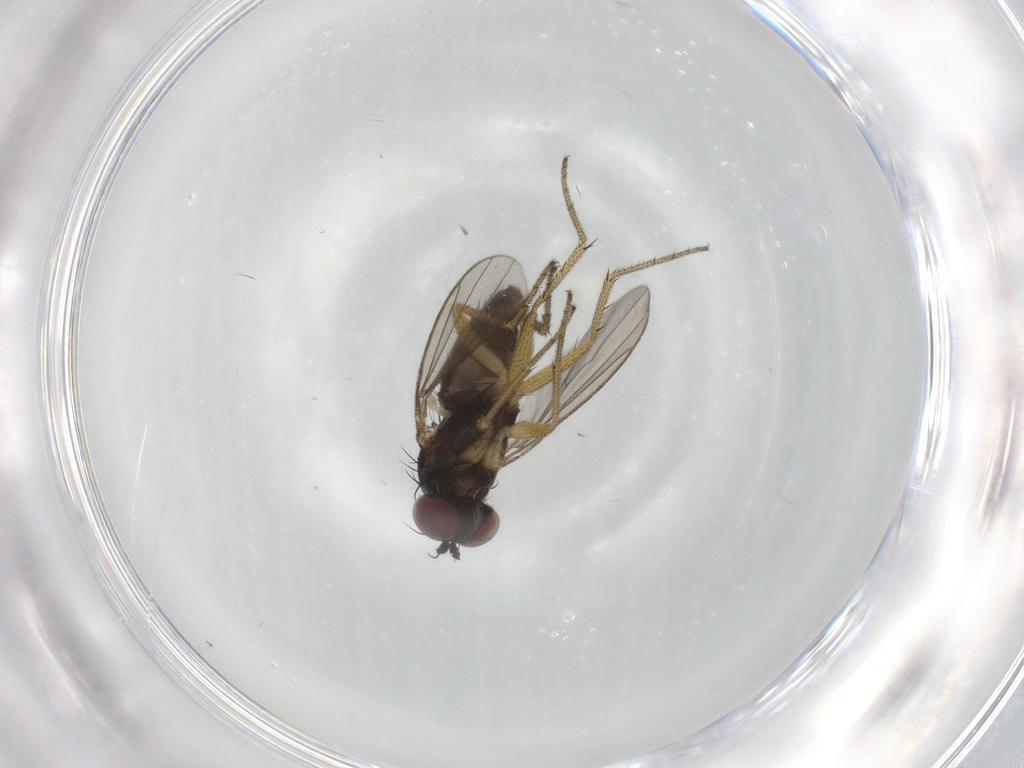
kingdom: Animalia
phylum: Arthropoda
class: Insecta
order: Diptera
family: Dolichopodidae
